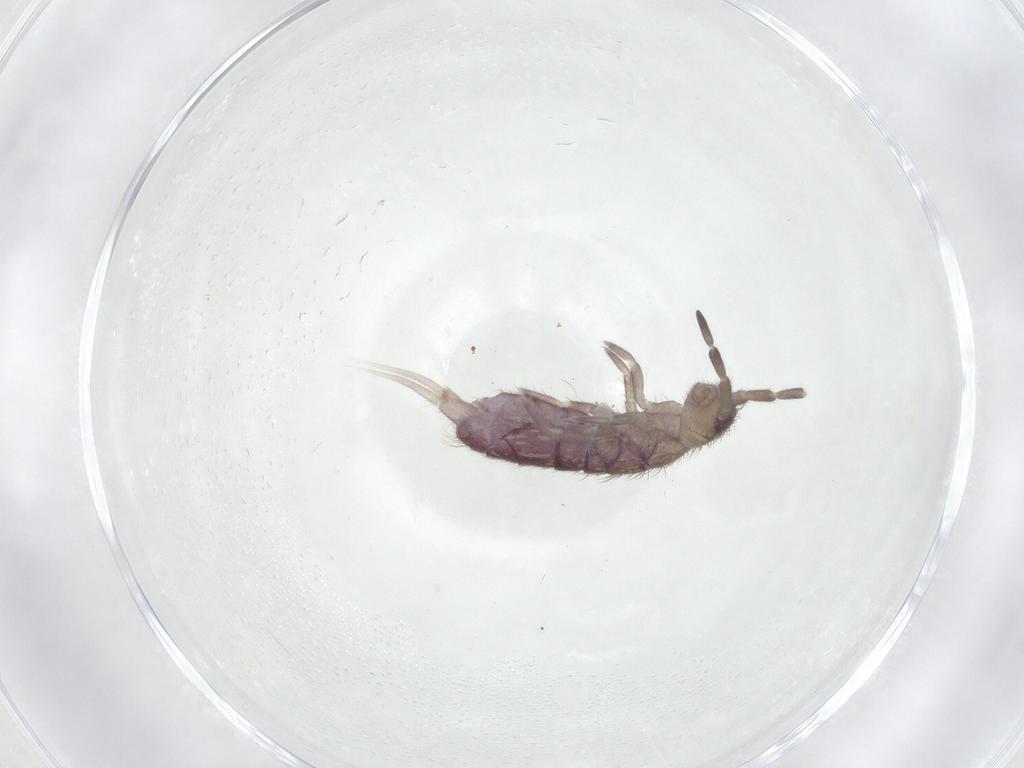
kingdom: Animalia
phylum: Arthropoda
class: Collembola
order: Entomobryomorpha
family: Isotomidae
